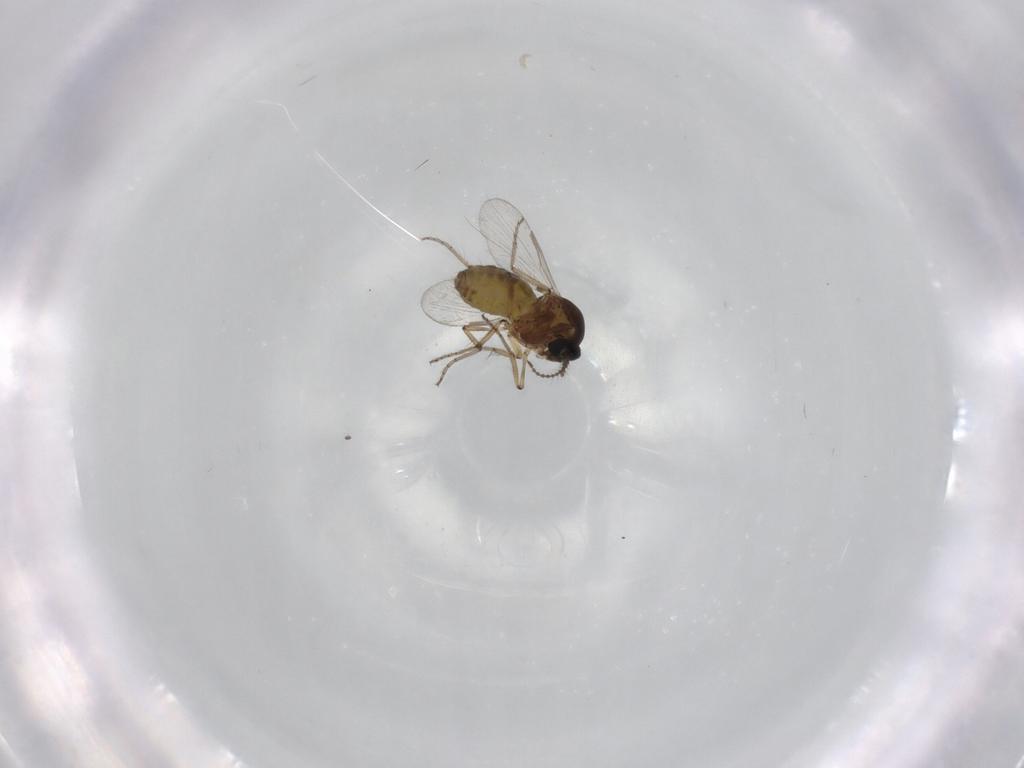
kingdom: Animalia
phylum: Arthropoda
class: Insecta
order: Diptera
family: Ceratopogonidae
